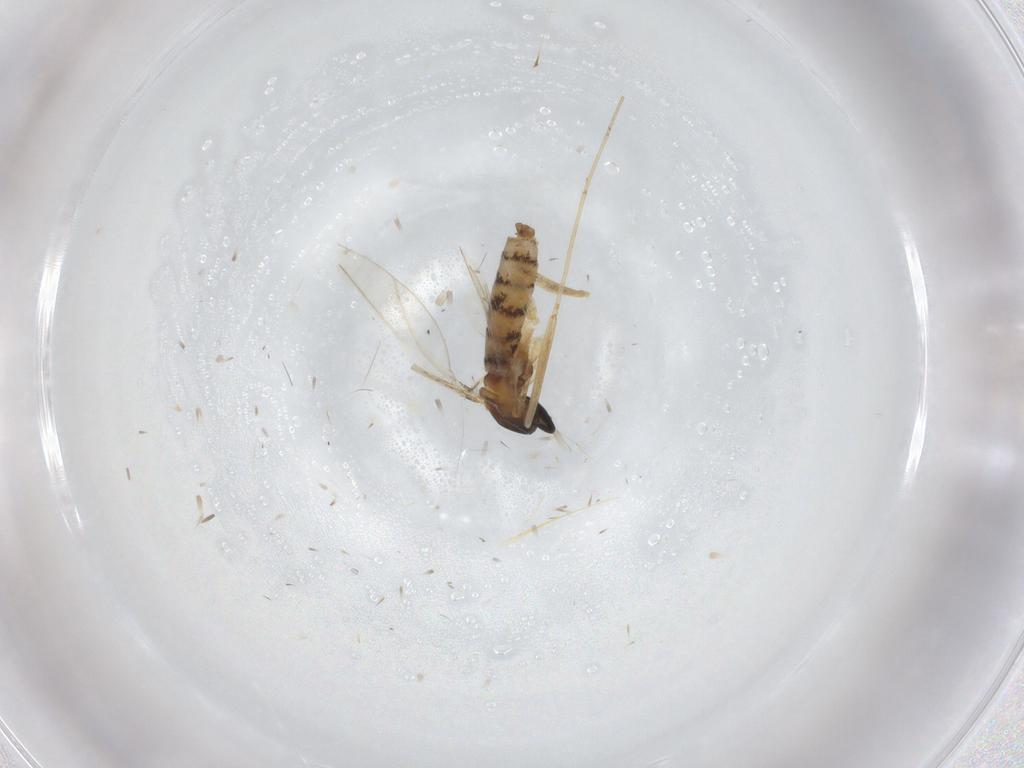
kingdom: Animalia
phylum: Arthropoda
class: Insecta
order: Diptera
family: Cecidomyiidae
